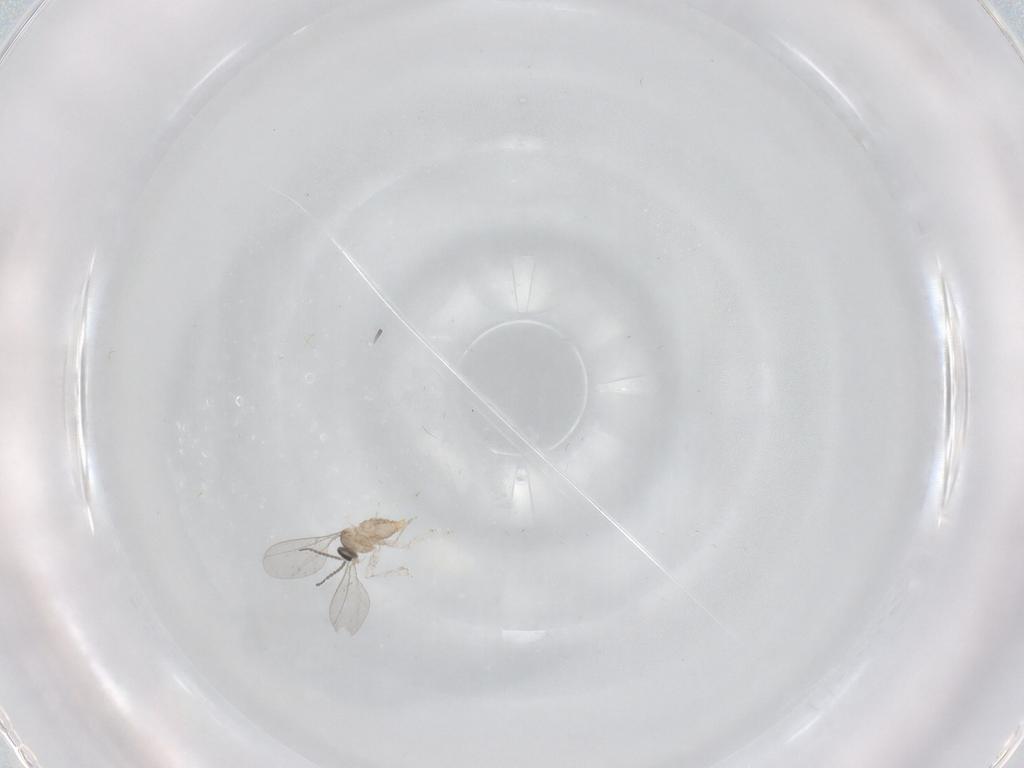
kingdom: Animalia
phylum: Arthropoda
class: Insecta
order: Diptera
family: Cecidomyiidae
